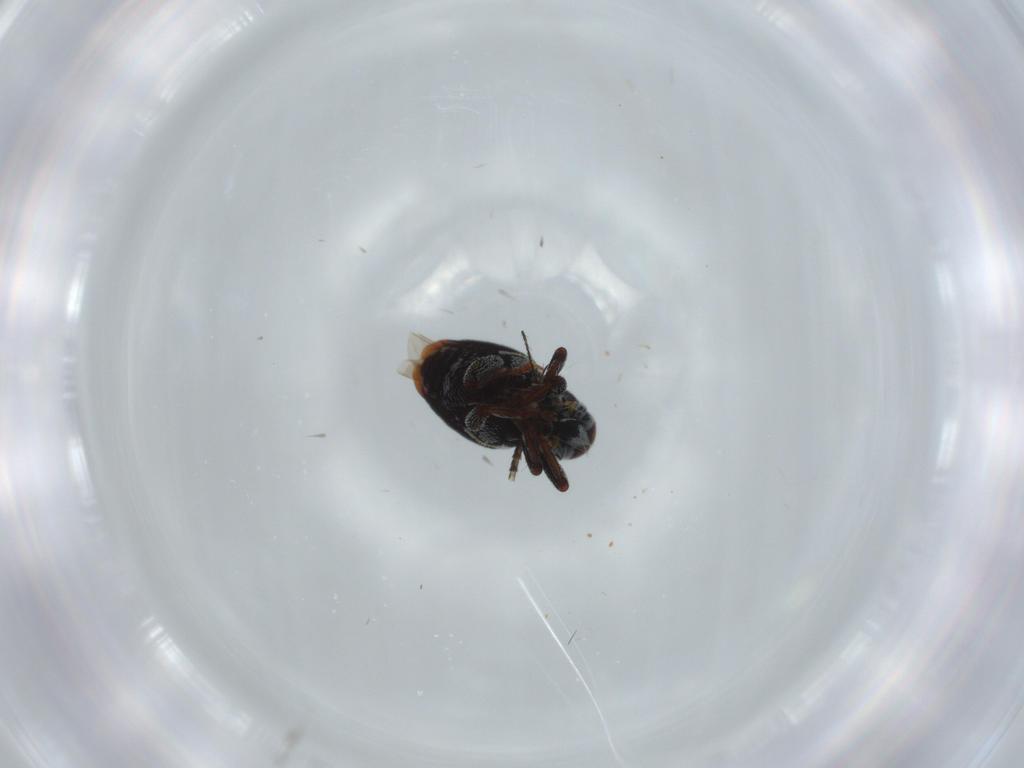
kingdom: Animalia
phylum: Arthropoda
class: Insecta
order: Coleoptera
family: Eucnemidae
